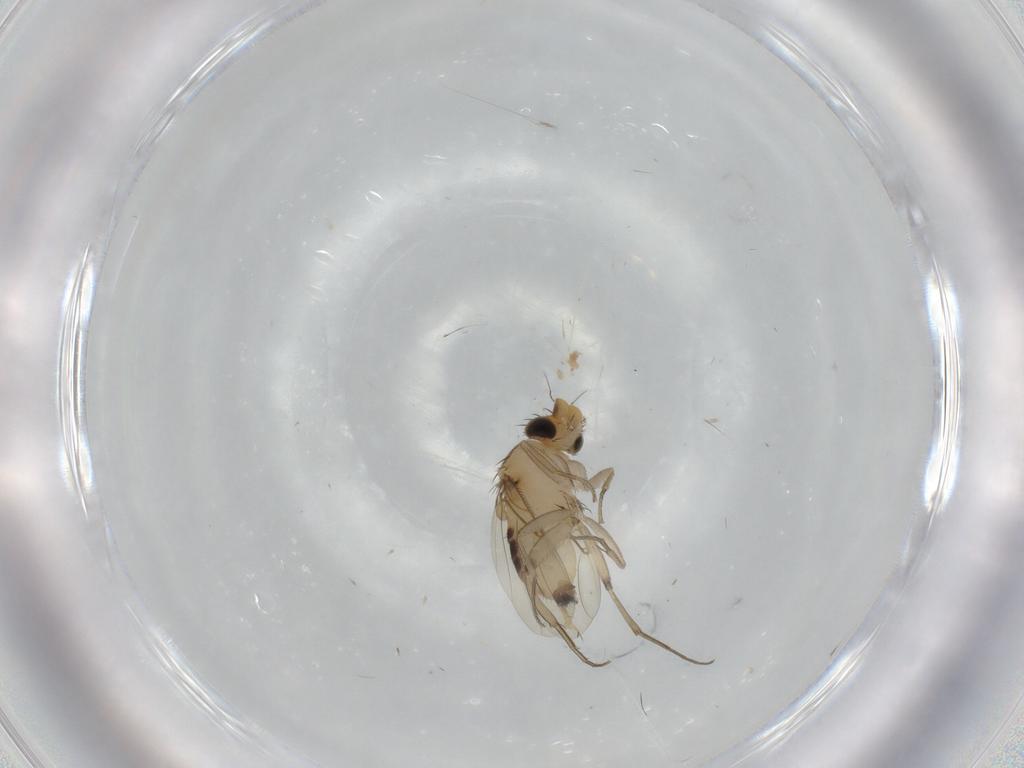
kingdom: Animalia
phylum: Arthropoda
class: Insecta
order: Diptera
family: Phoridae
